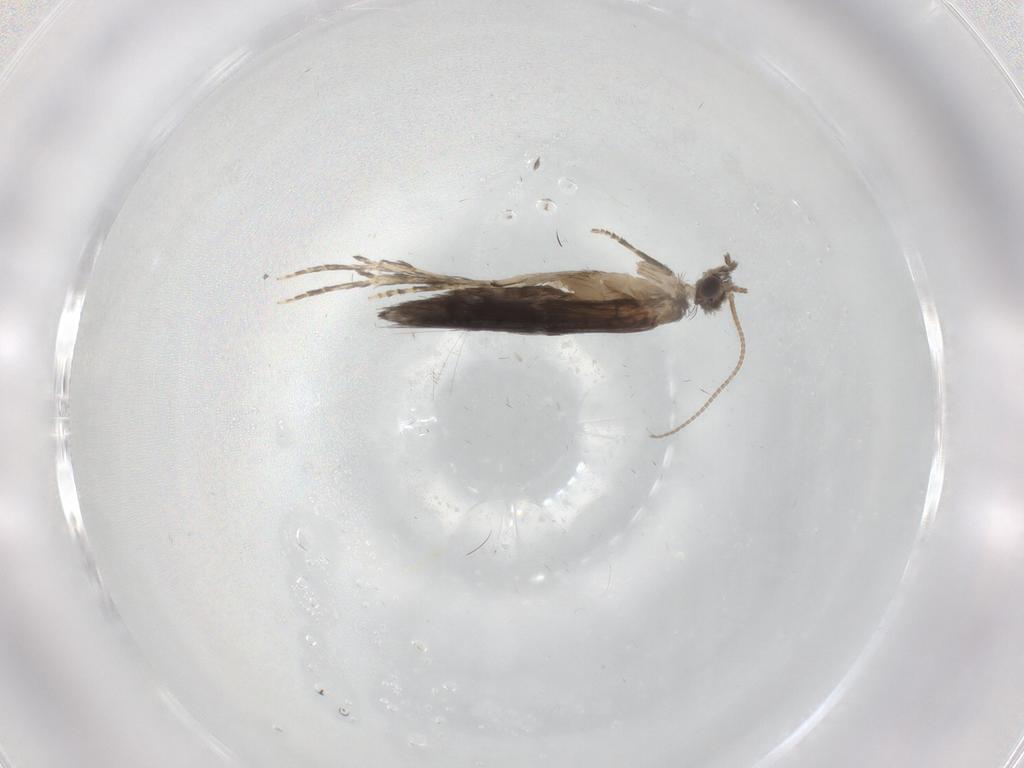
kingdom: Animalia
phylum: Arthropoda
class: Insecta
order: Trichoptera
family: Hydroptilidae
